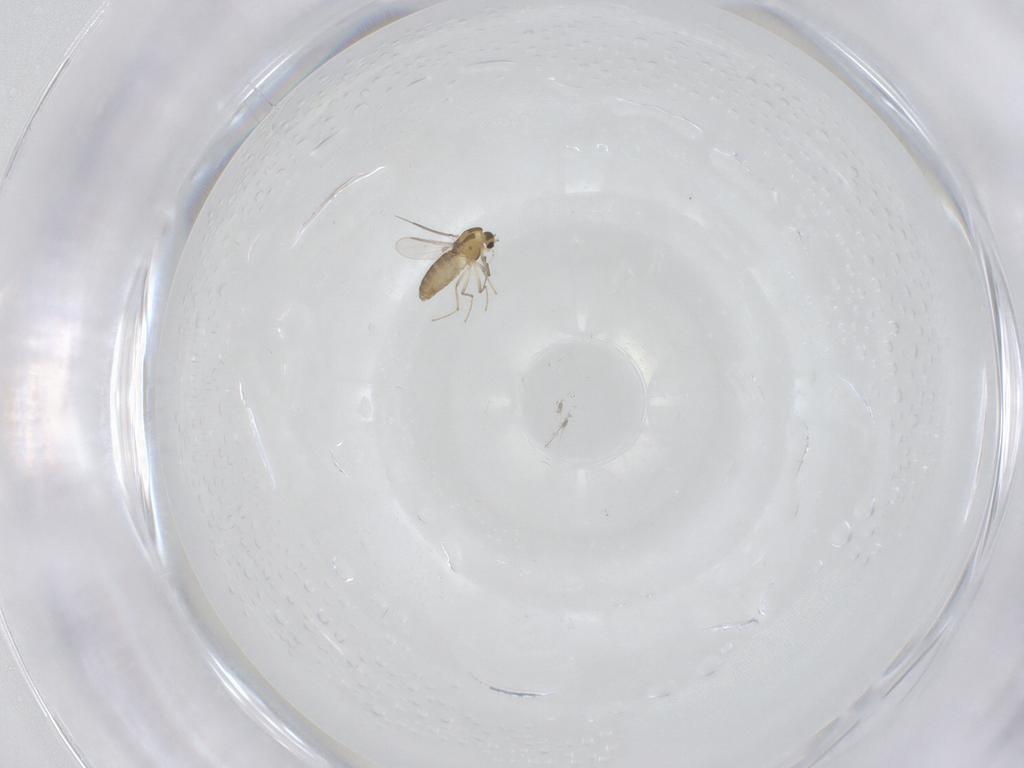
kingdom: Animalia
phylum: Arthropoda
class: Insecta
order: Diptera
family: Chironomidae
